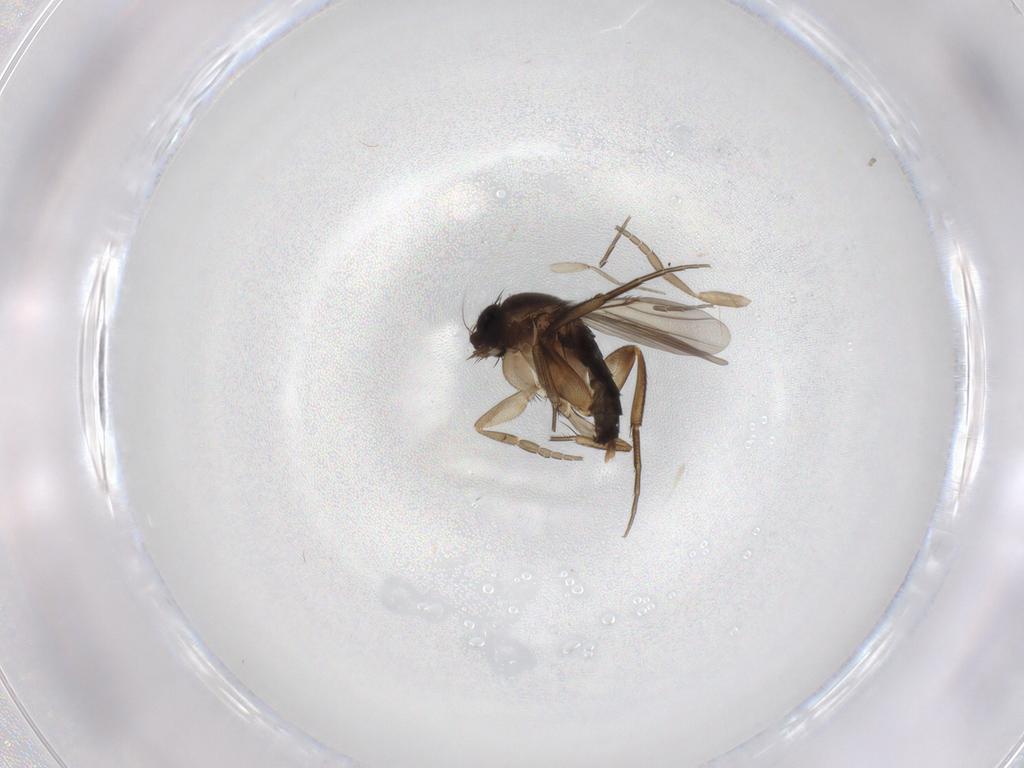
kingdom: Animalia
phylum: Arthropoda
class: Insecta
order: Diptera
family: Phoridae
